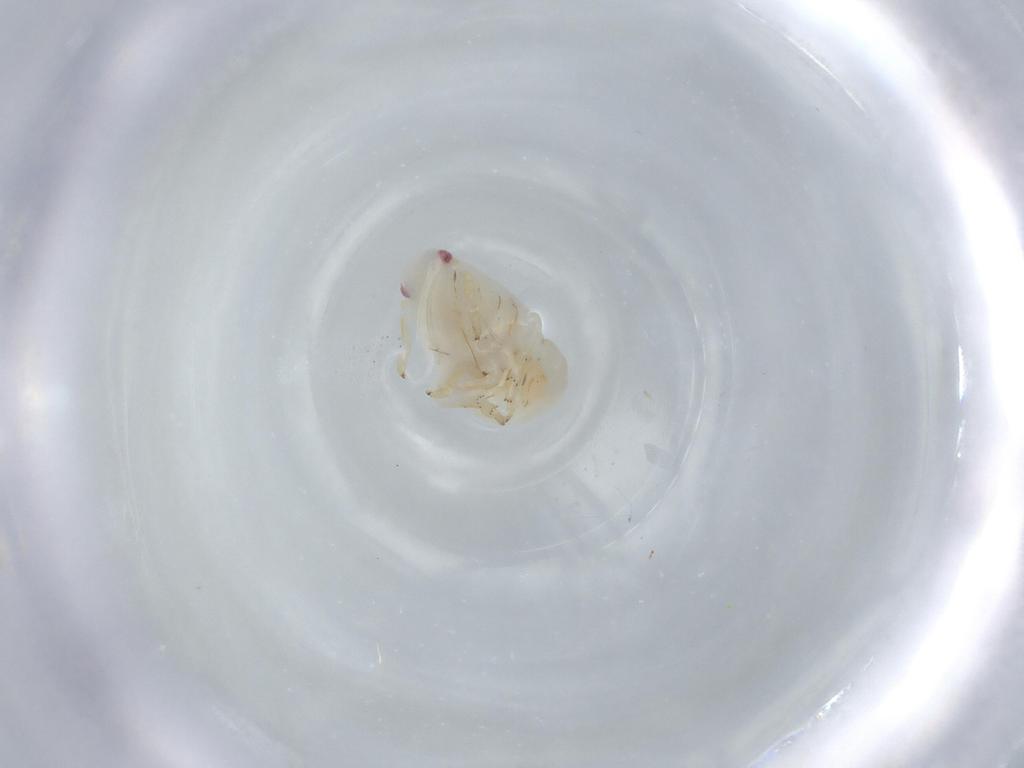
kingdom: Animalia
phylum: Arthropoda
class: Insecta
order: Hemiptera
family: Flatidae
